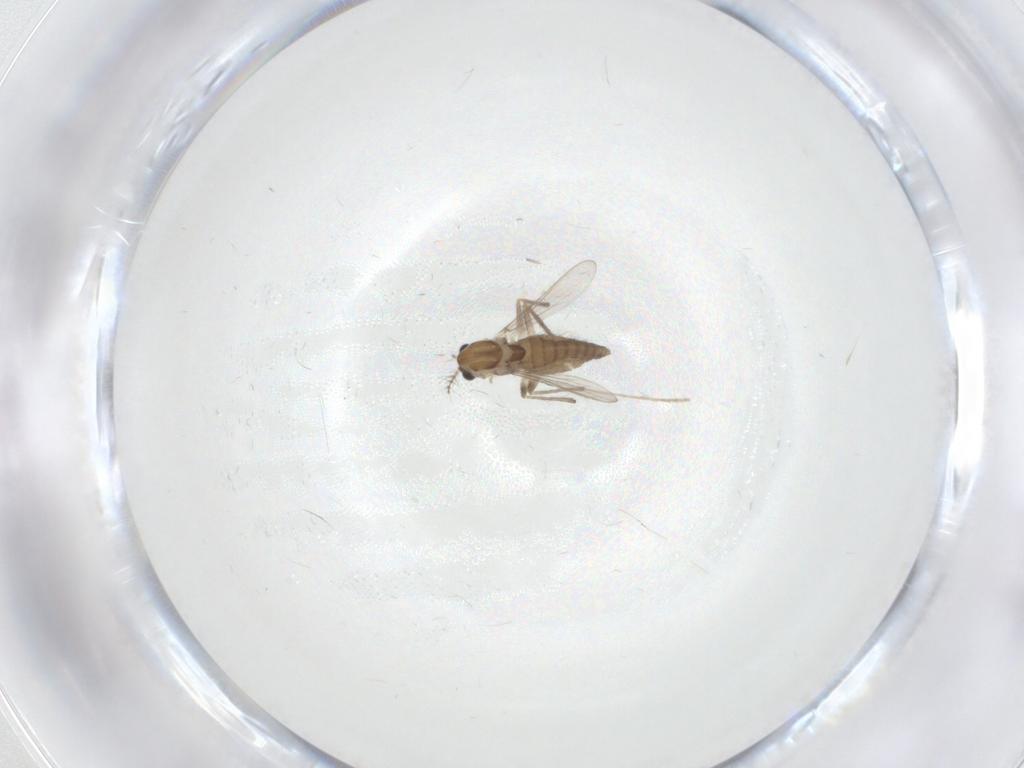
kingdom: Animalia
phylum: Arthropoda
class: Insecta
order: Diptera
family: Chironomidae
